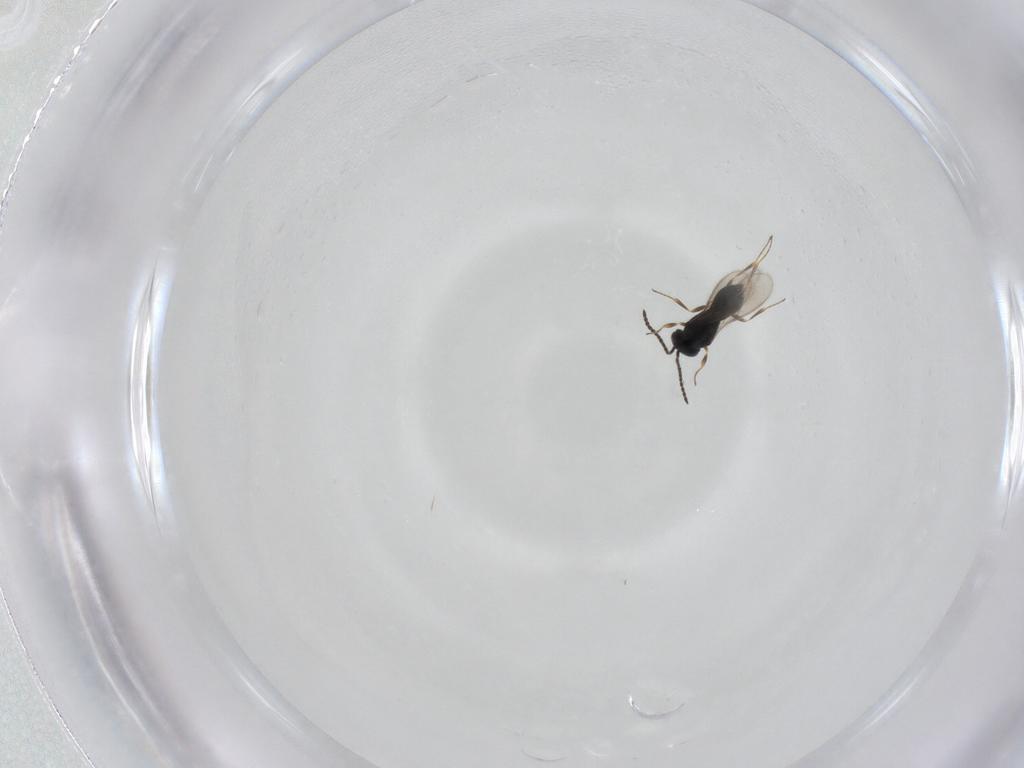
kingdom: Animalia
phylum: Arthropoda
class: Insecta
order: Hymenoptera
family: Scelionidae
